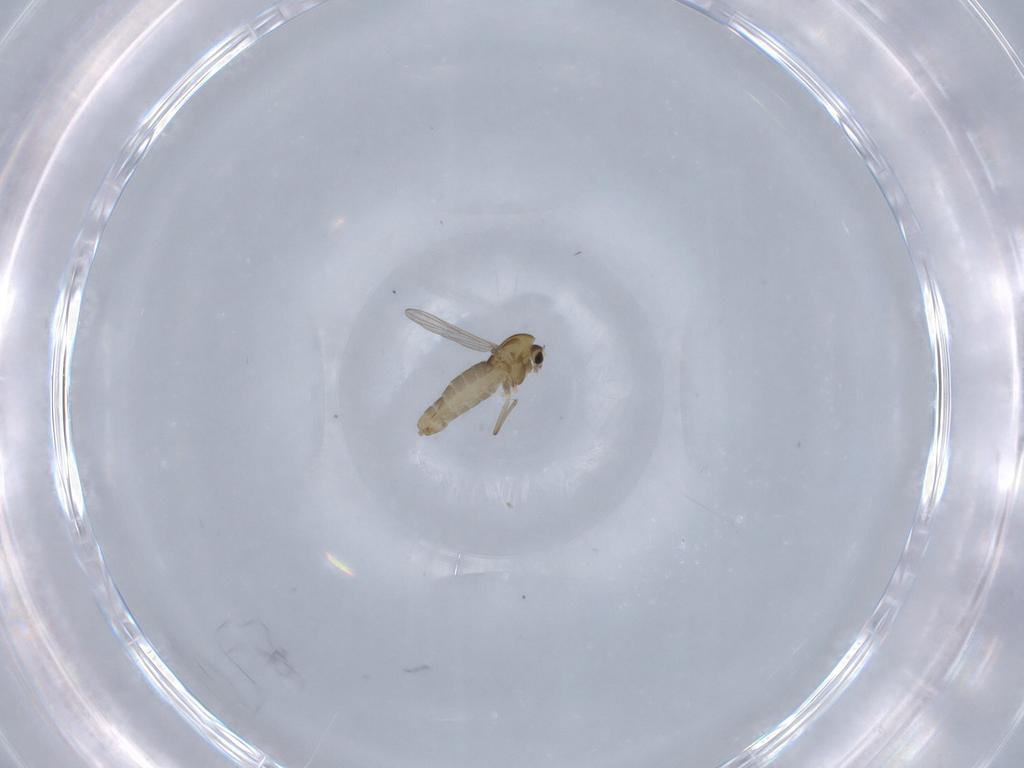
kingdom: Animalia
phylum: Arthropoda
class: Insecta
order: Diptera
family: Chironomidae
